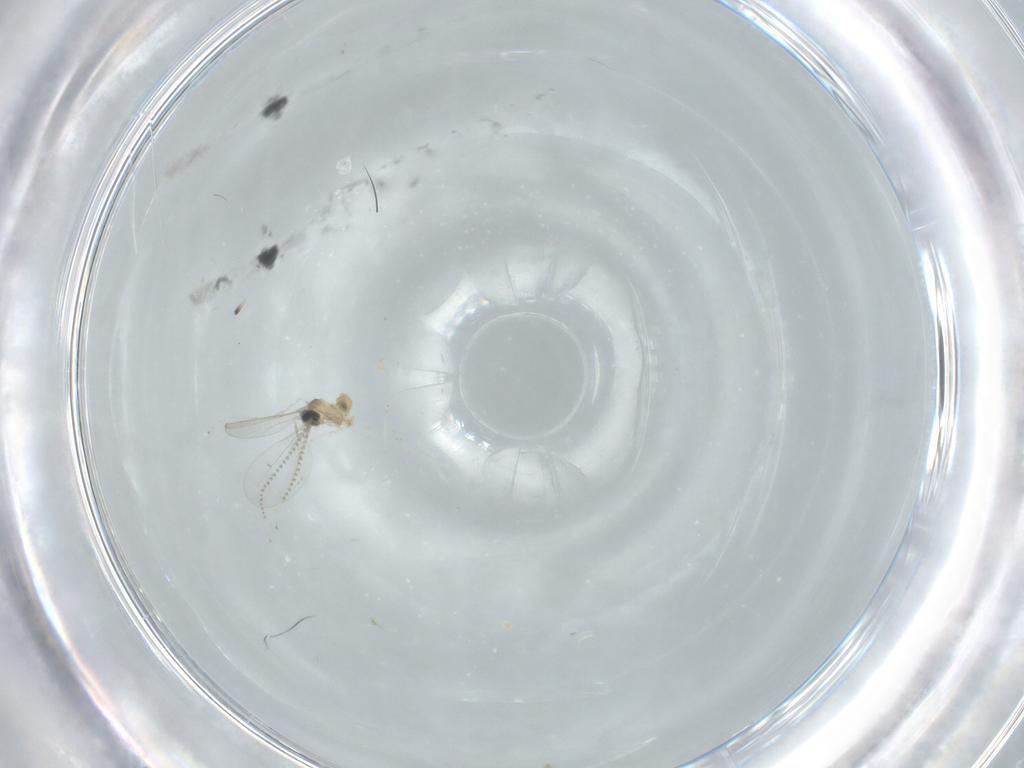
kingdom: Animalia
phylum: Arthropoda
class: Insecta
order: Diptera
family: Cecidomyiidae
